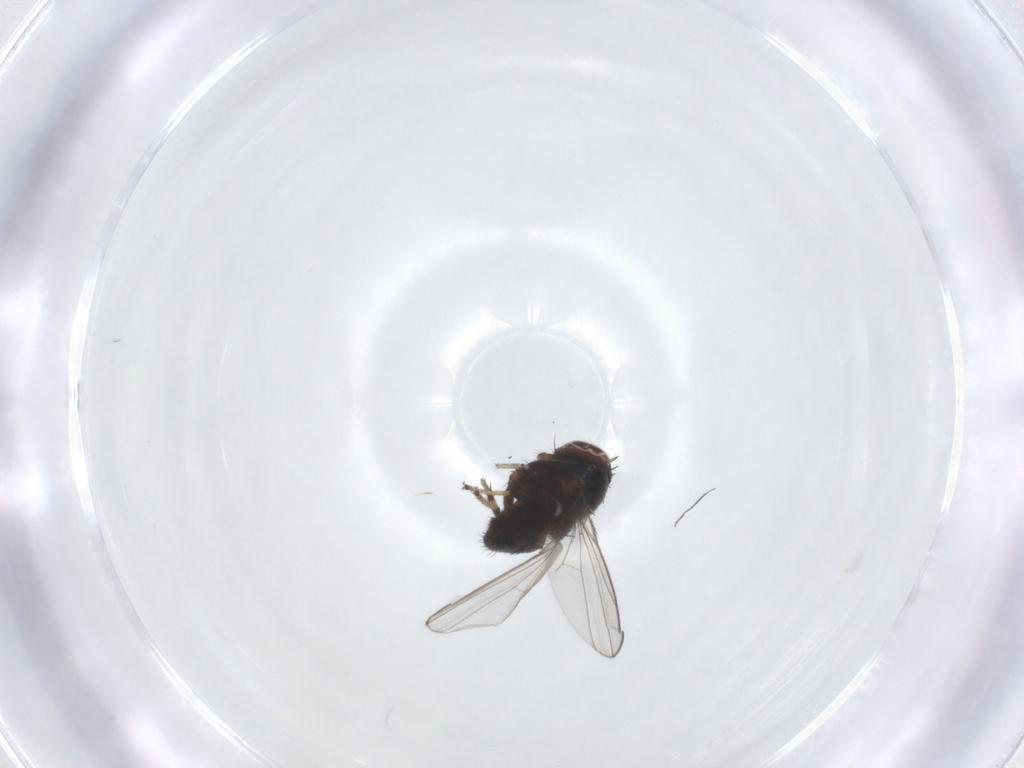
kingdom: Animalia
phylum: Arthropoda
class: Insecta
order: Diptera
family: Ephydridae
